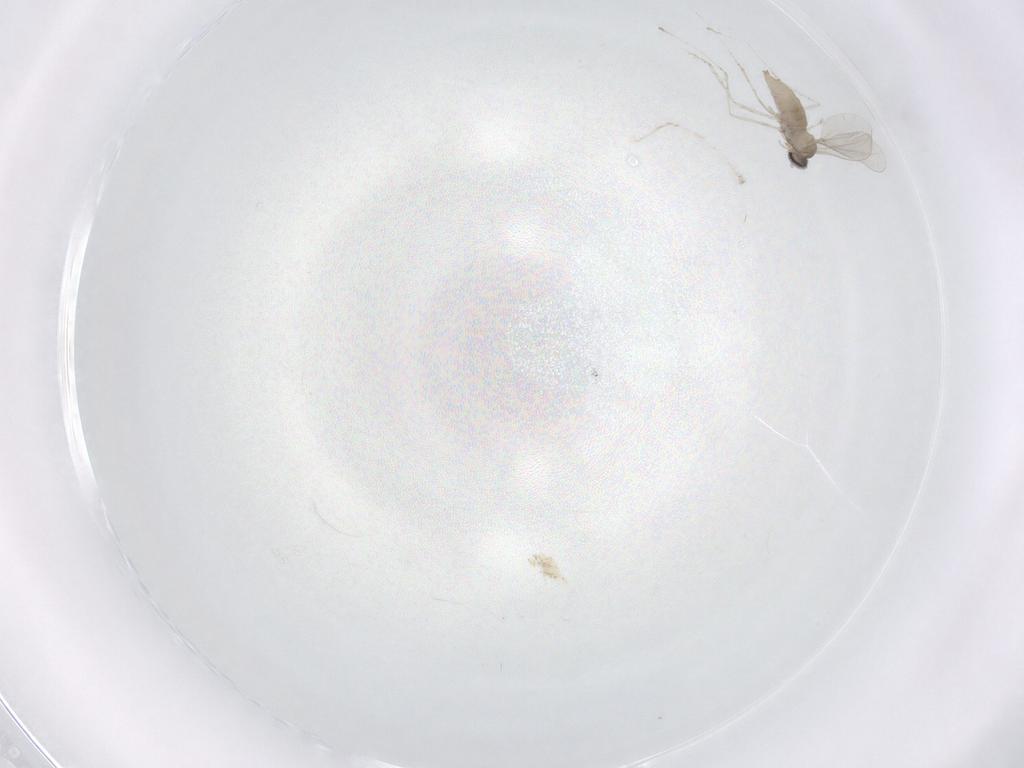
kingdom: Animalia
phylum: Arthropoda
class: Insecta
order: Diptera
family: Cecidomyiidae
